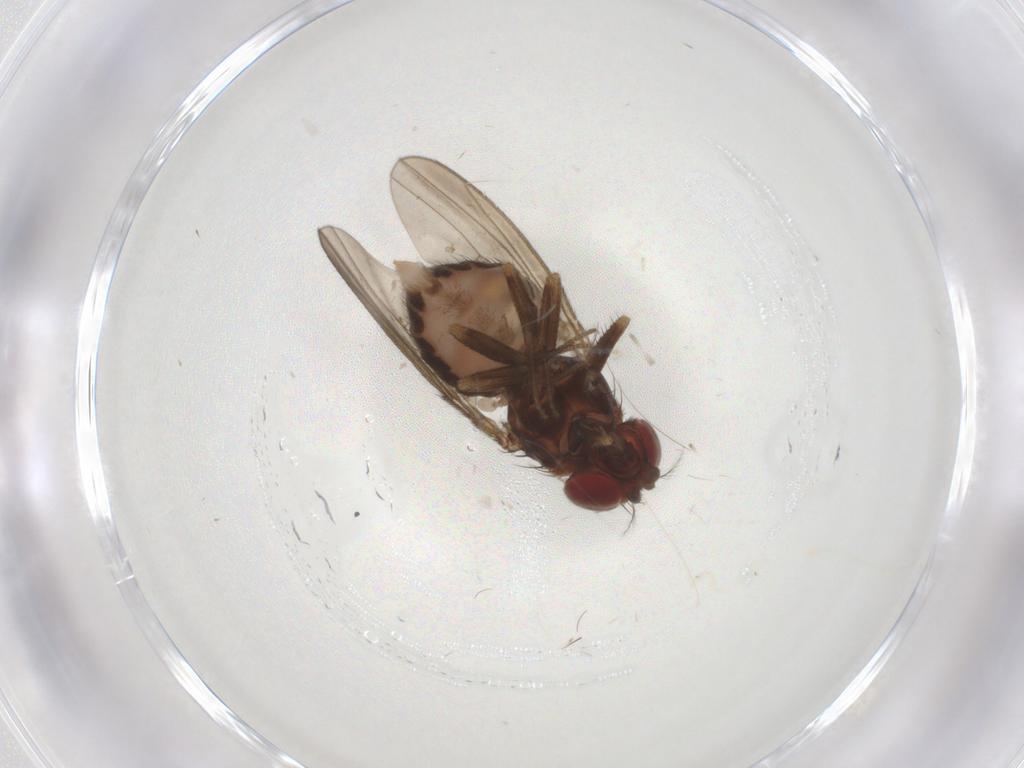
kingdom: Animalia
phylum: Arthropoda
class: Insecta
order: Diptera
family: Drosophilidae
